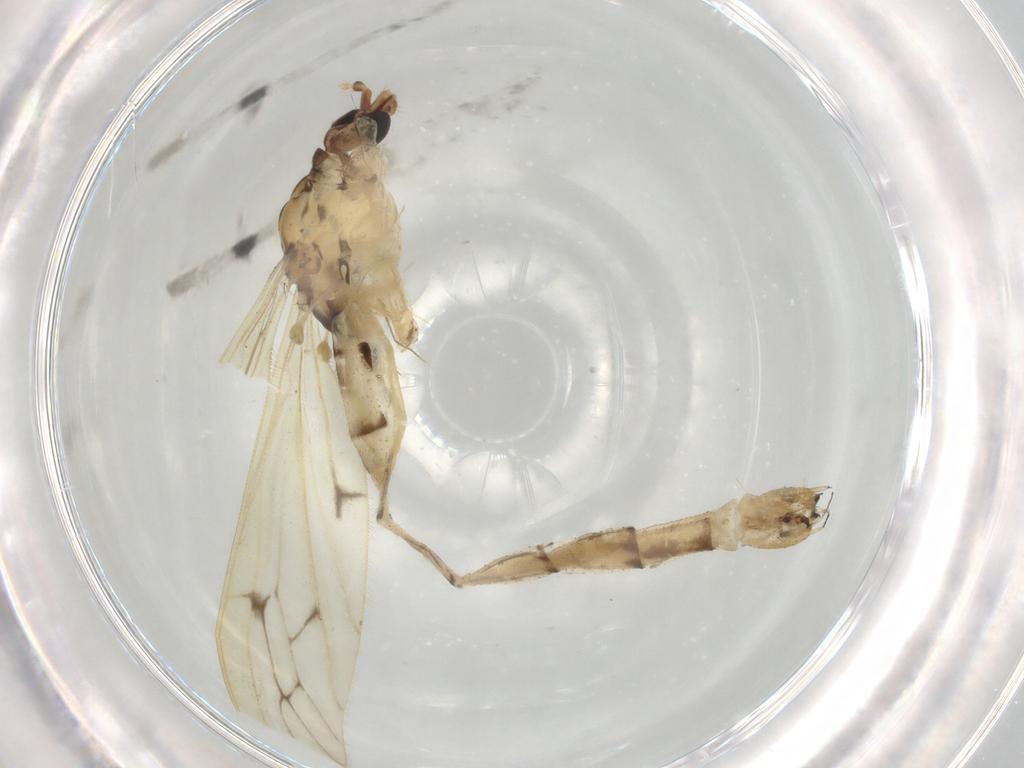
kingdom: Animalia
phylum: Arthropoda
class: Insecta
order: Diptera
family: Limoniidae
